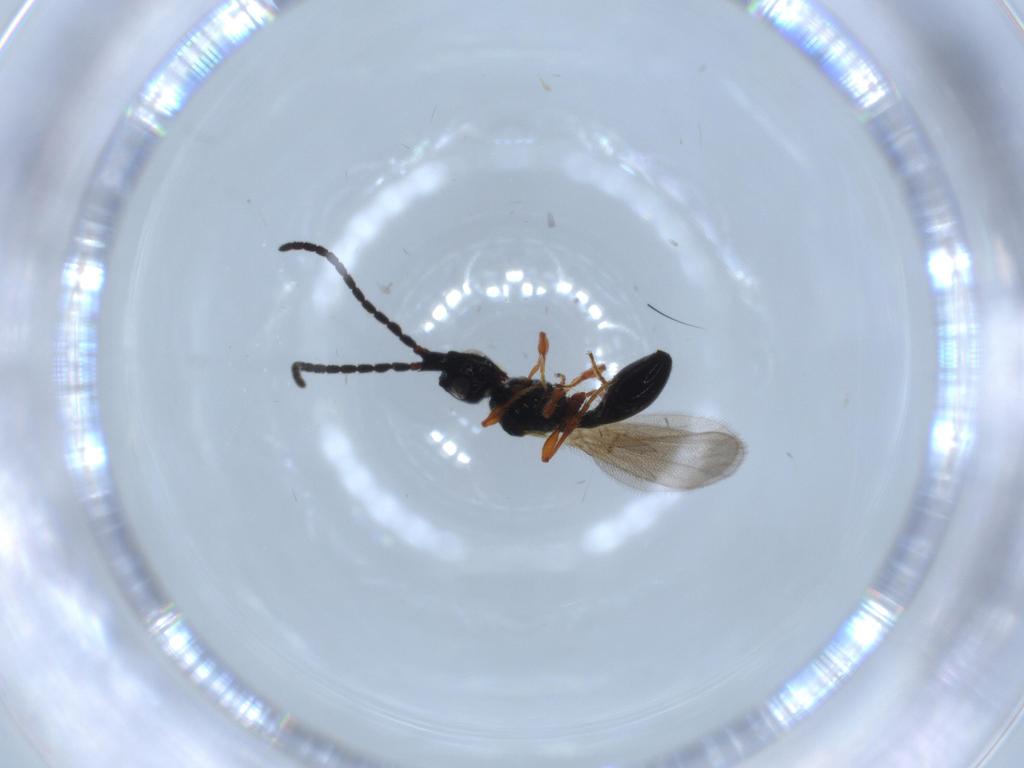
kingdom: Animalia
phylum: Arthropoda
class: Insecta
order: Hymenoptera
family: Diapriidae
